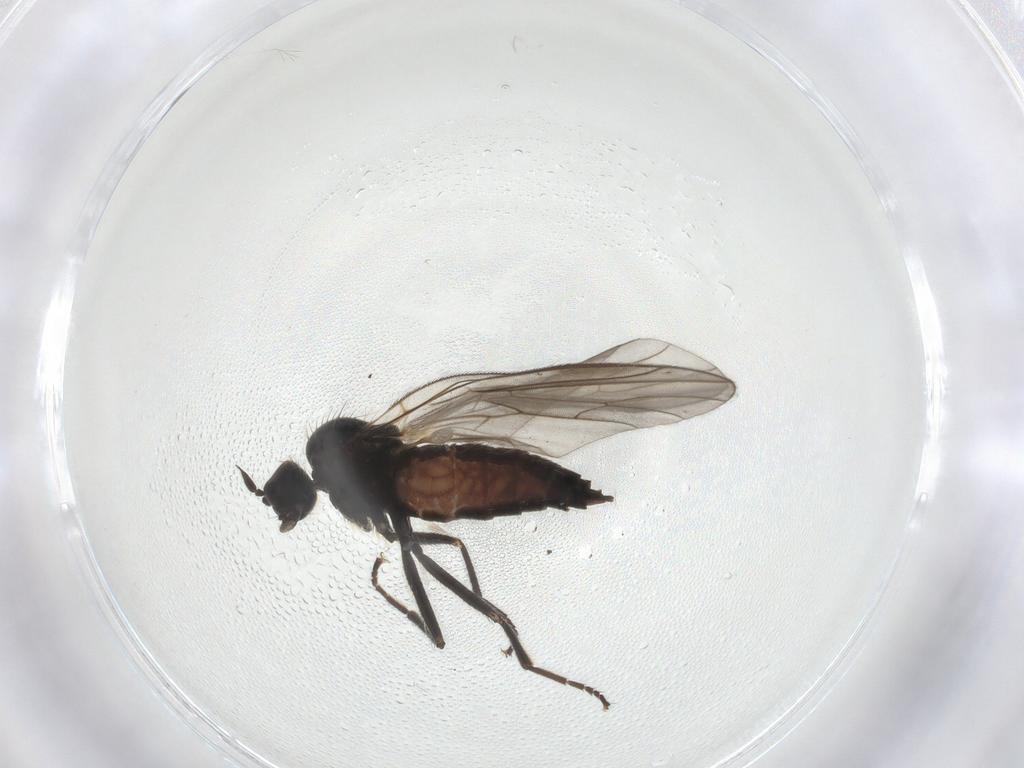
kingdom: Animalia
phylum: Arthropoda
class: Insecta
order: Diptera
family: Hybotidae
